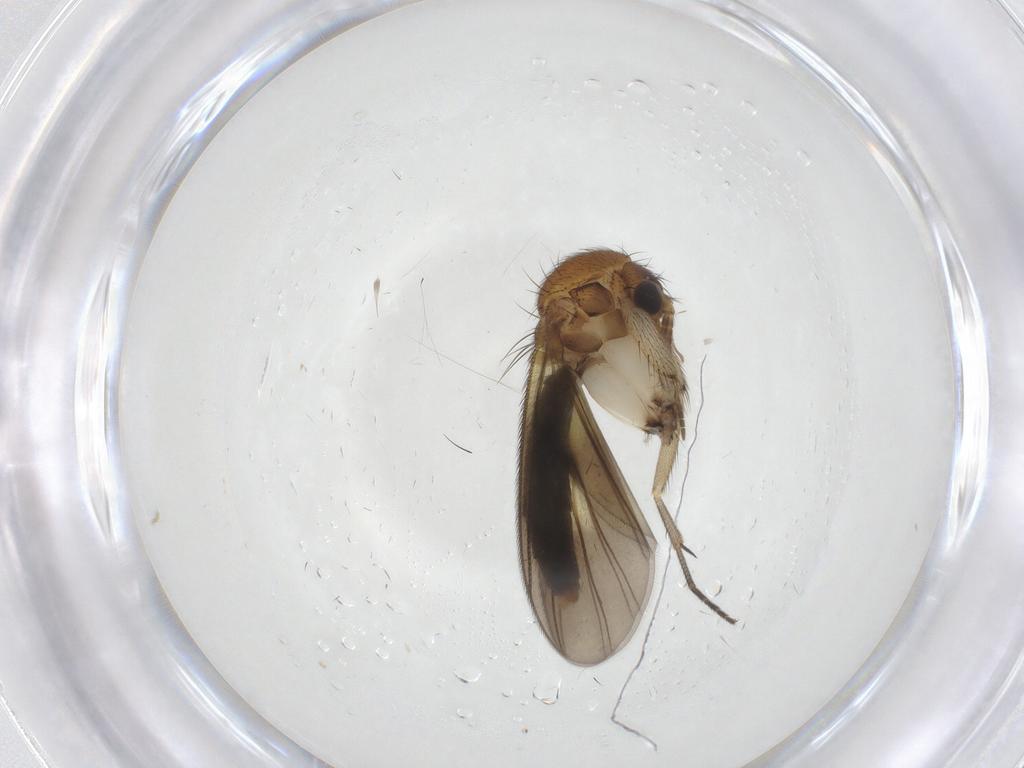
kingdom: Animalia
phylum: Arthropoda
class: Insecta
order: Diptera
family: Mycetophilidae
